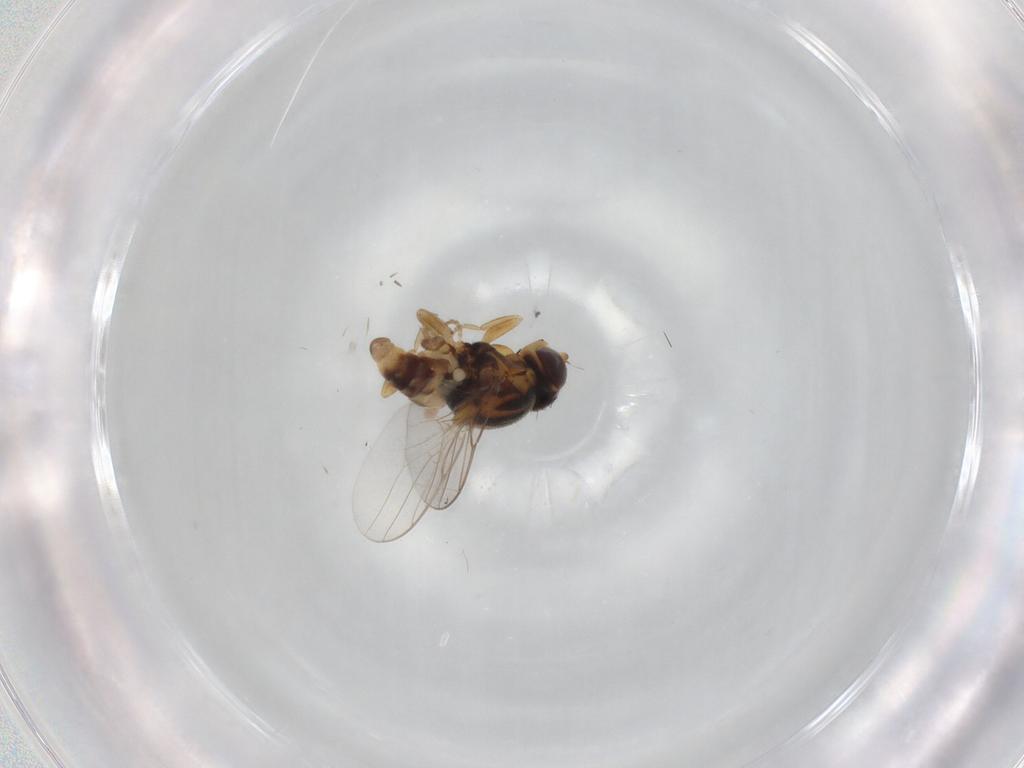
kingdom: Animalia
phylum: Arthropoda
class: Insecta
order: Diptera
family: Chloropidae
